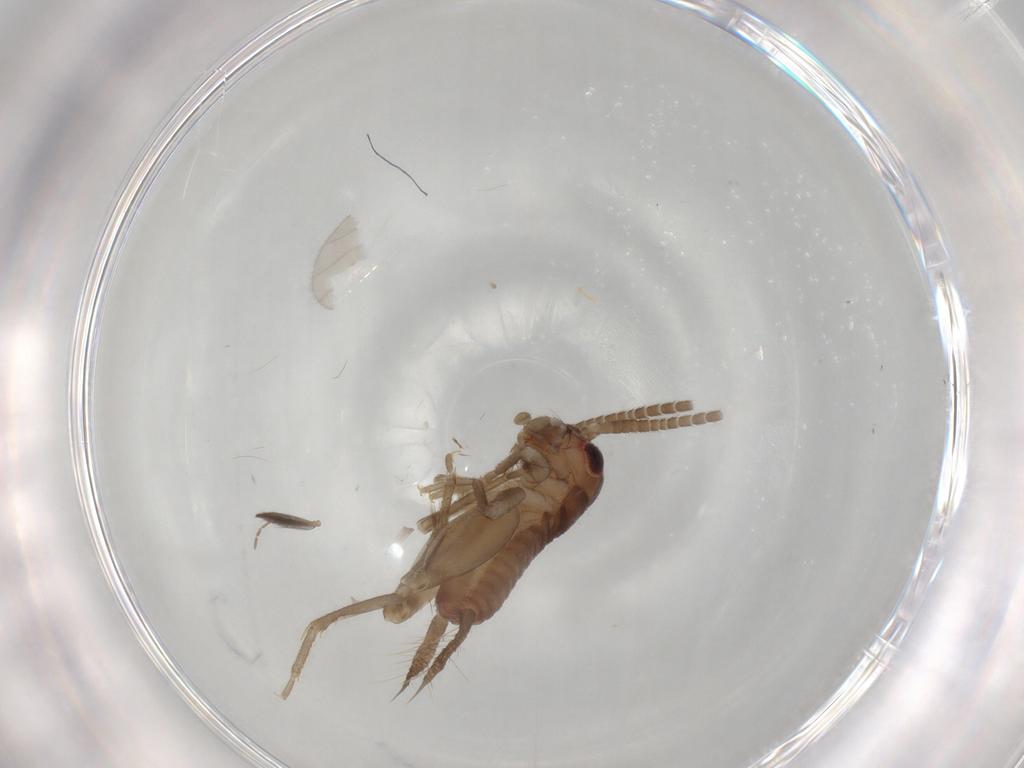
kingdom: Animalia
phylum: Arthropoda
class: Insecta
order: Orthoptera
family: Gryllidae
